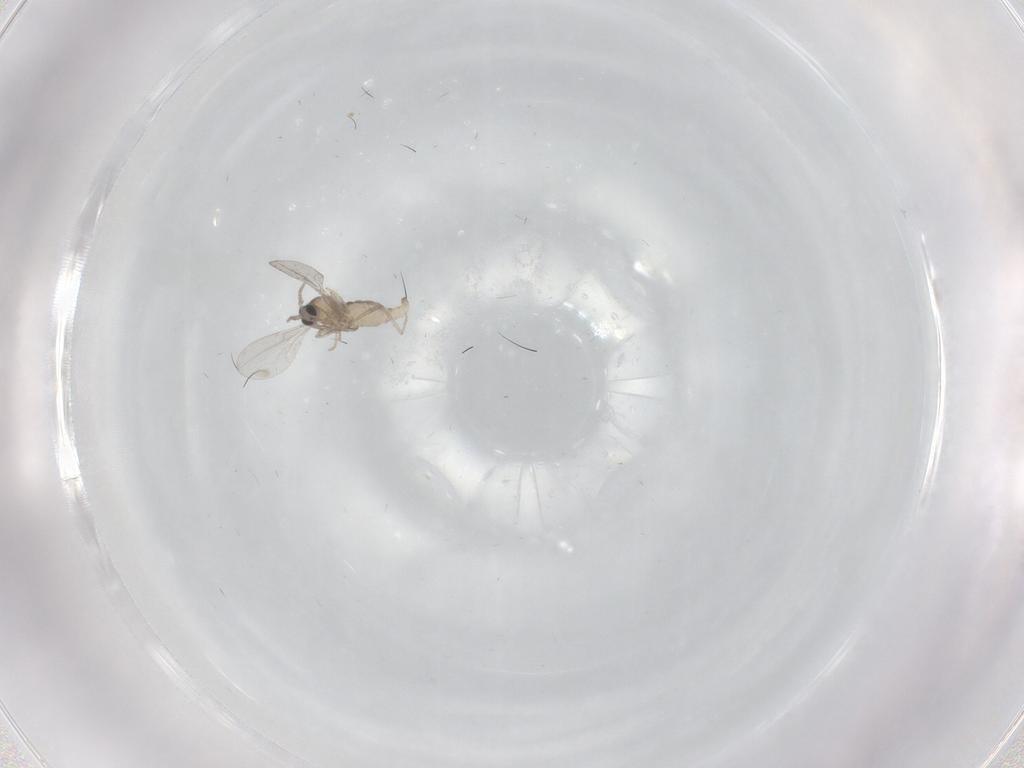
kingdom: Animalia
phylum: Arthropoda
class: Insecta
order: Diptera
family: Cecidomyiidae
